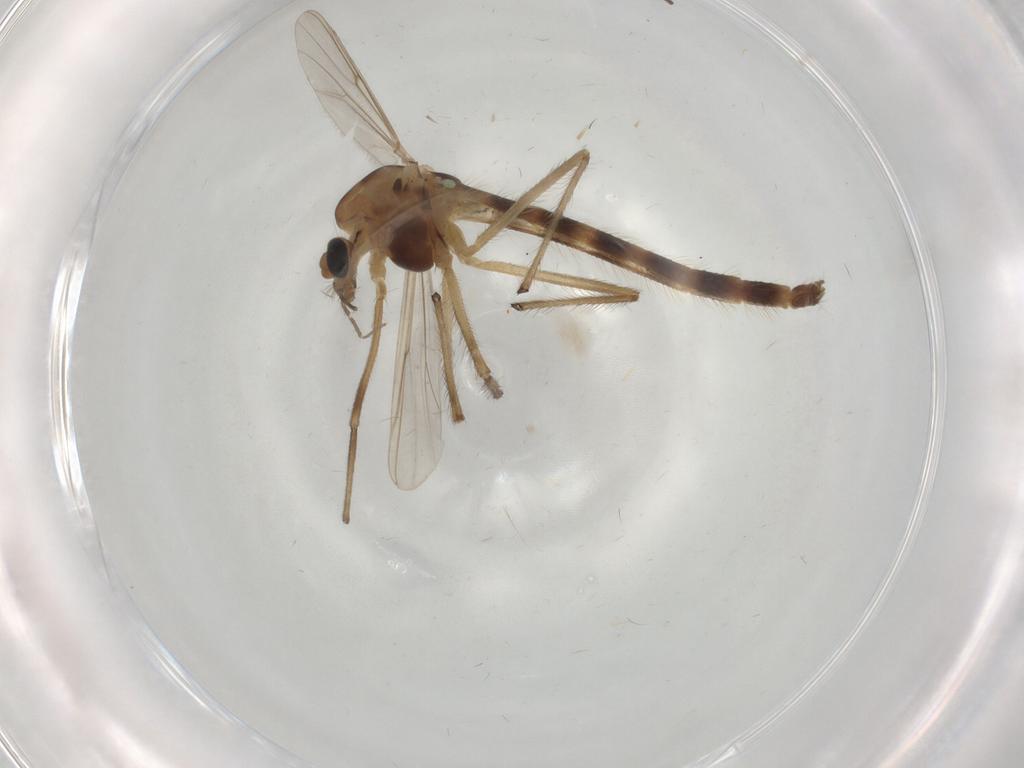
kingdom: Animalia
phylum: Arthropoda
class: Insecta
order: Diptera
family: Chironomidae
